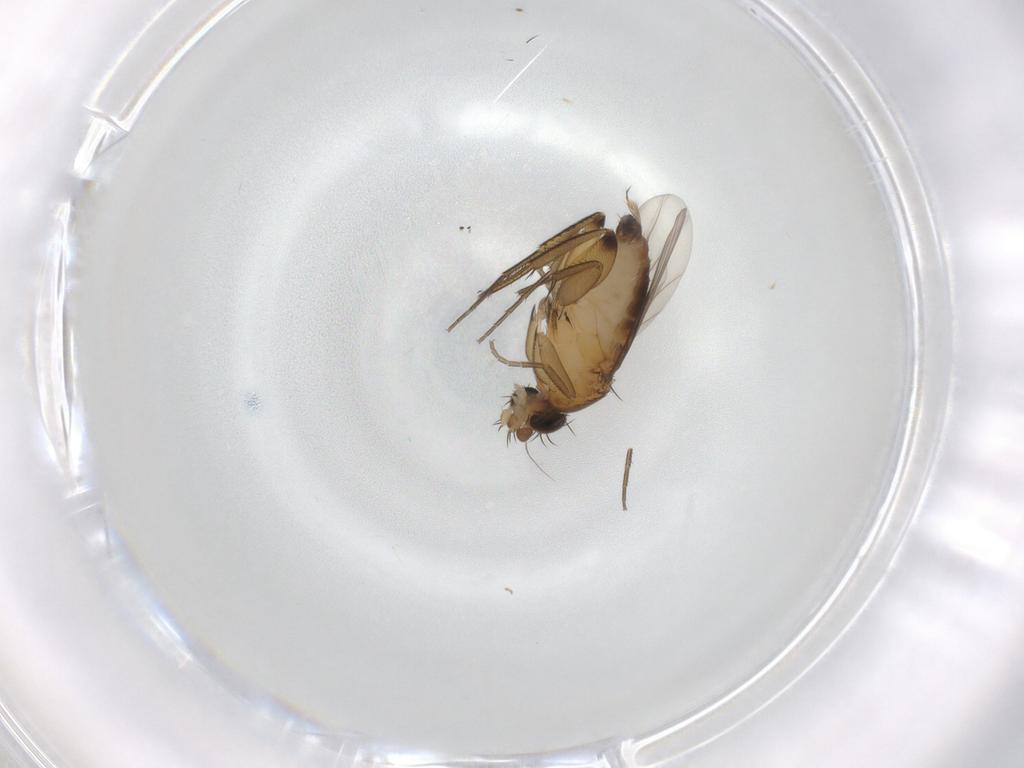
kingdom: Animalia
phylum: Arthropoda
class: Insecta
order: Diptera
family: Phoridae
